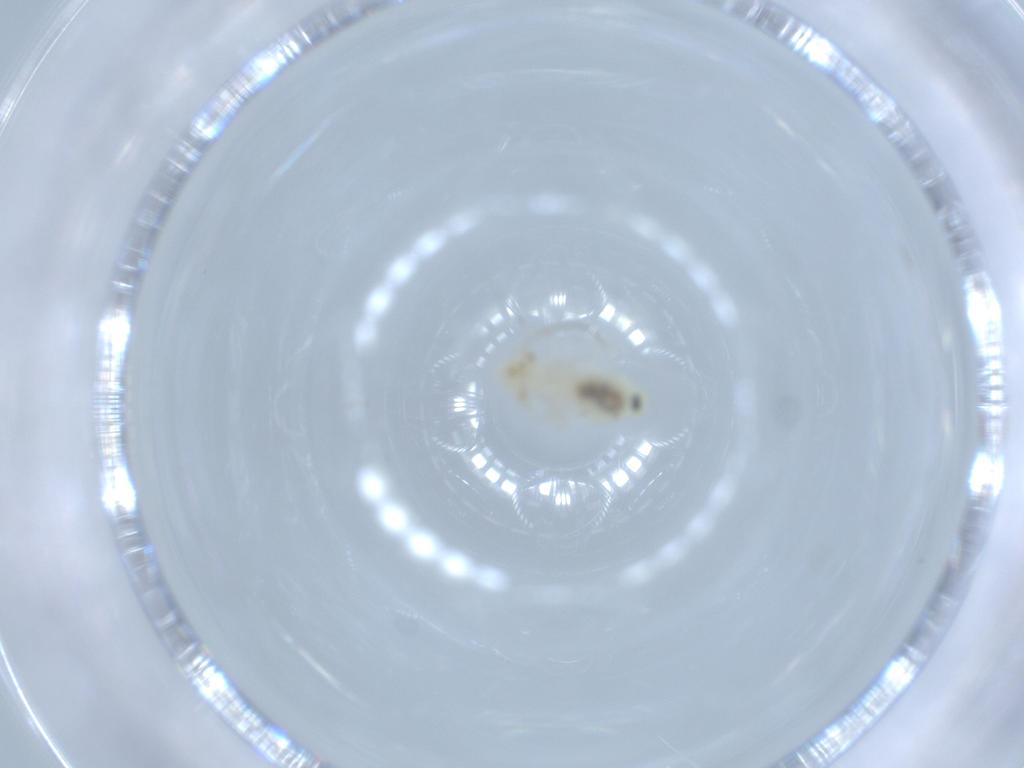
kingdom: Animalia
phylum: Arthropoda
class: Insecta
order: Psocodea
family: Caeciliusidae
